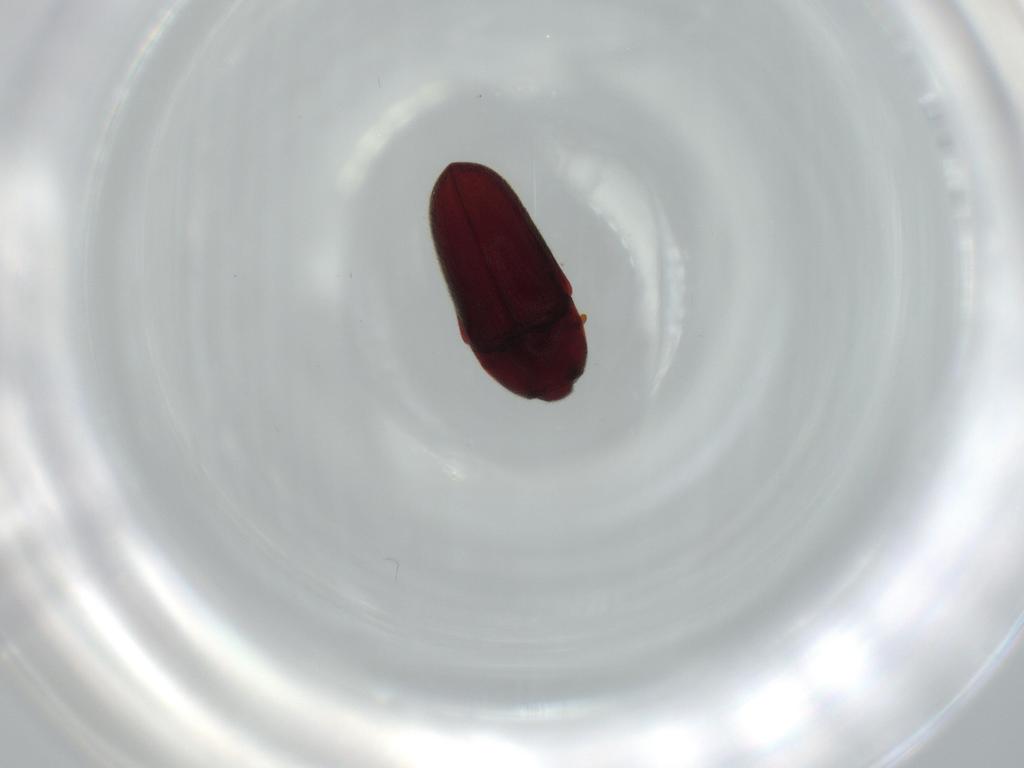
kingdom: Animalia
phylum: Arthropoda
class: Insecta
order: Coleoptera
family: Throscidae
